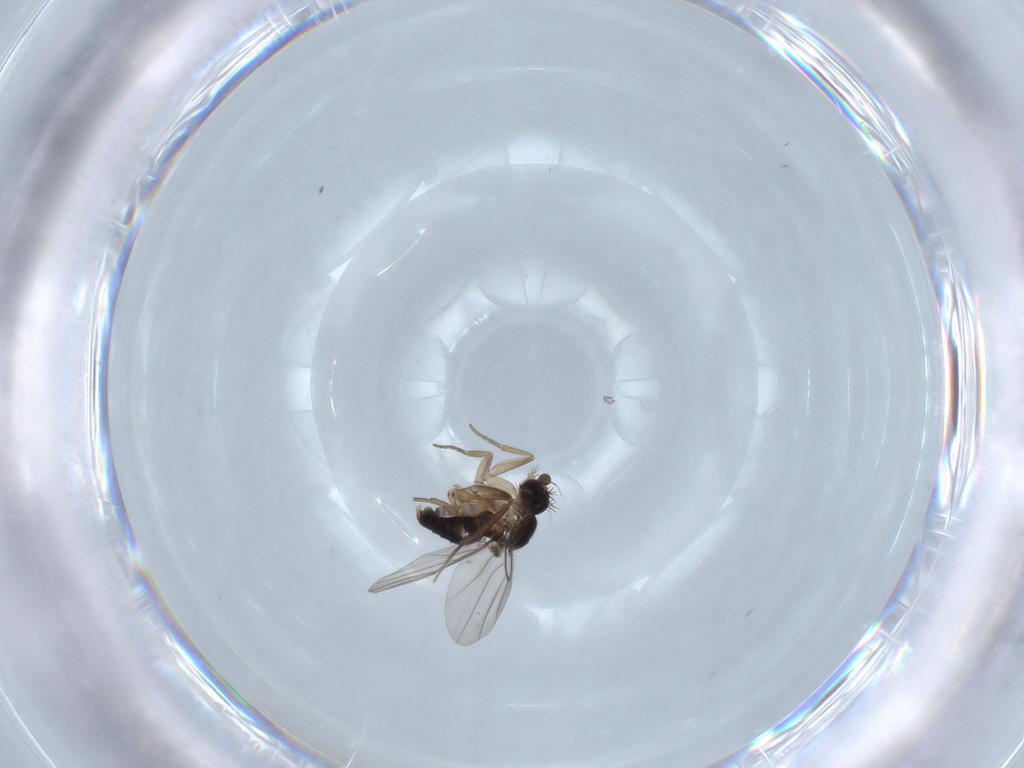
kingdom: Animalia
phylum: Arthropoda
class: Insecta
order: Diptera
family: Phoridae
